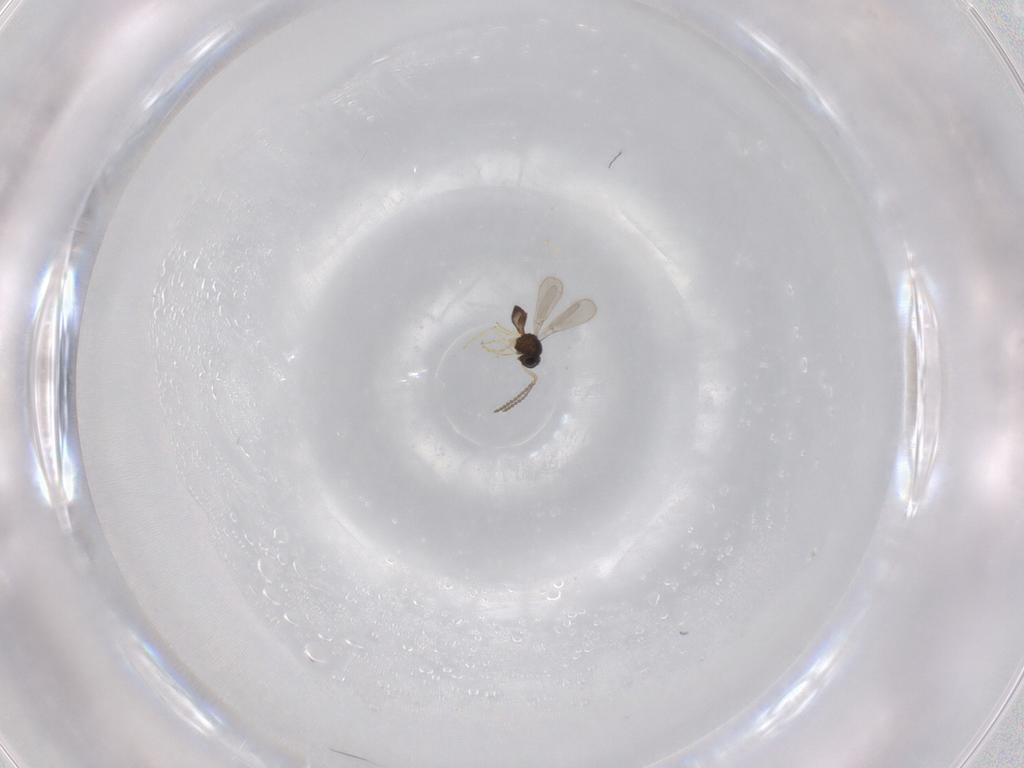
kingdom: Animalia
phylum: Arthropoda
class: Insecta
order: Hymenoptera
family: Scelionidae
